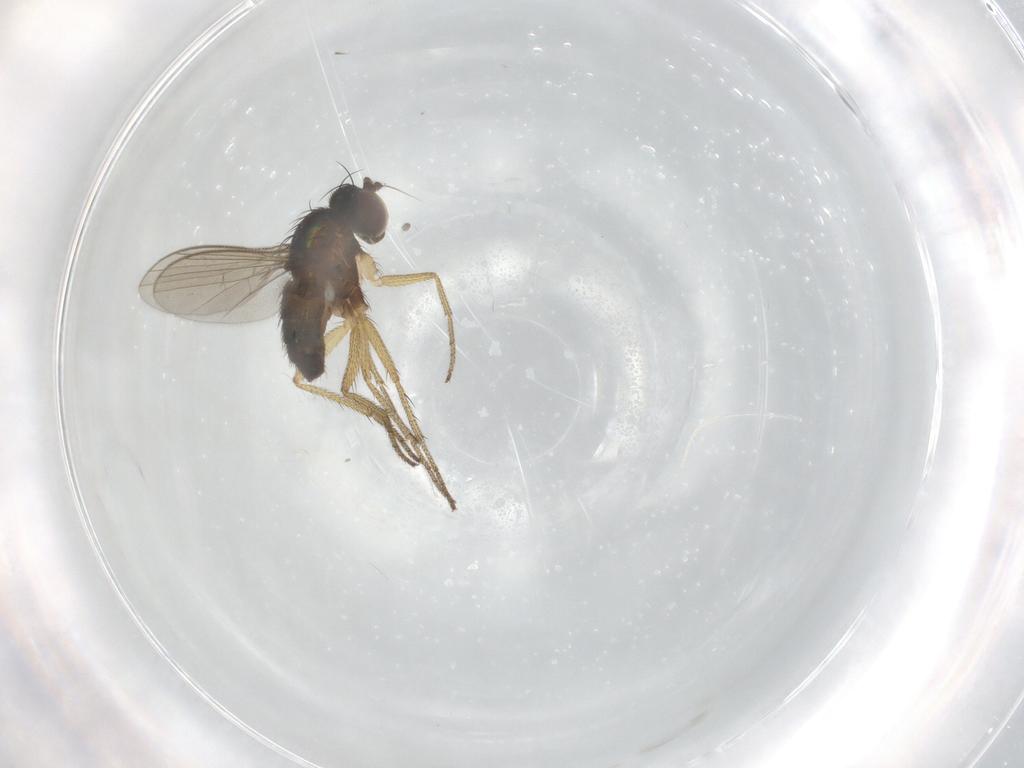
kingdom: Animalia
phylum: Arthropoda
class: Insecta
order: Diptera
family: Dolichopodidae
